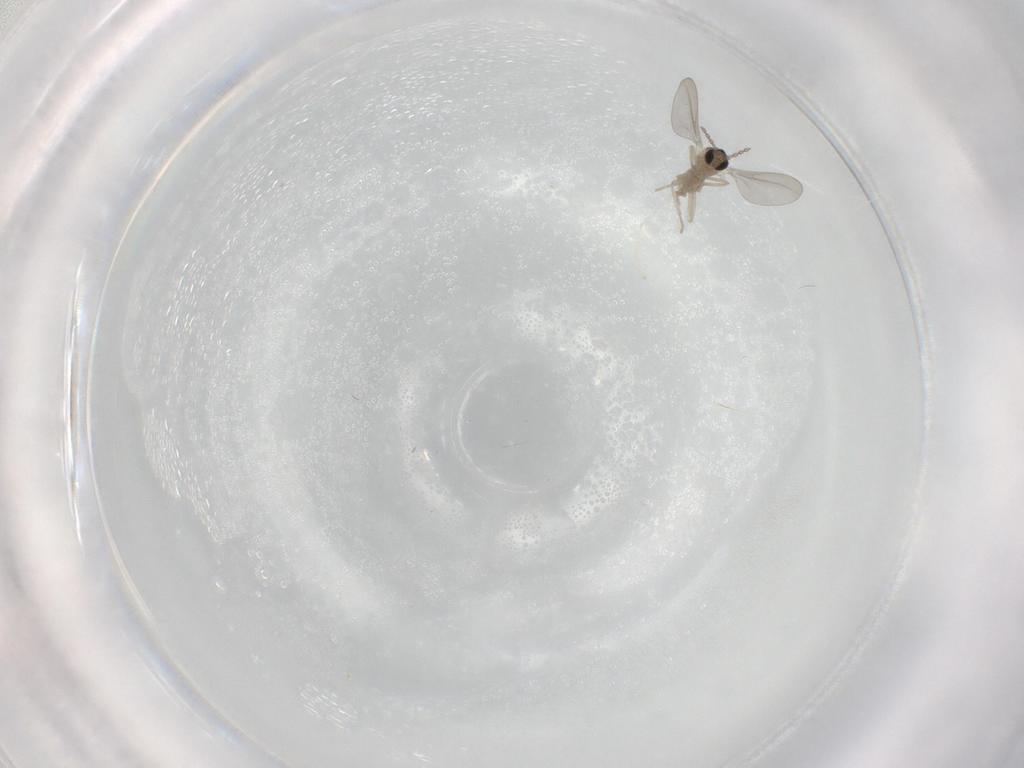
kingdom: Animalia
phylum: Arthropoda
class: Insecta
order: Diptera
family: Cecidomyiidae
